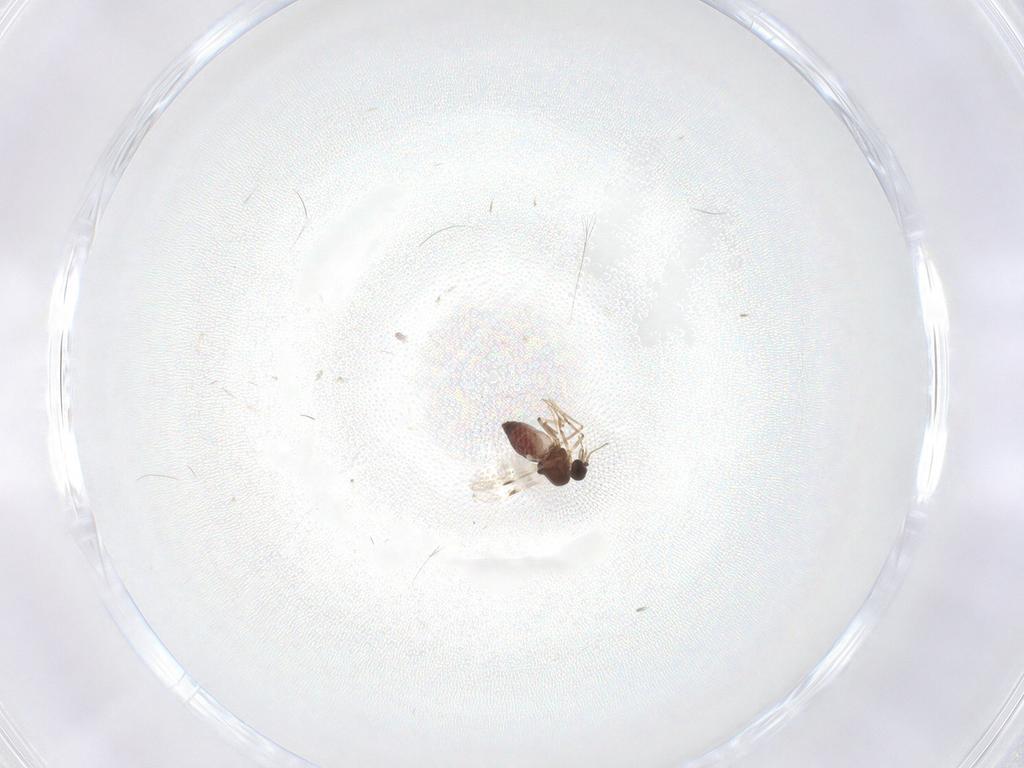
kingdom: Animalia
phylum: Arthropoda
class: Insecta
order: Diptera
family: Cecidomyiidae
